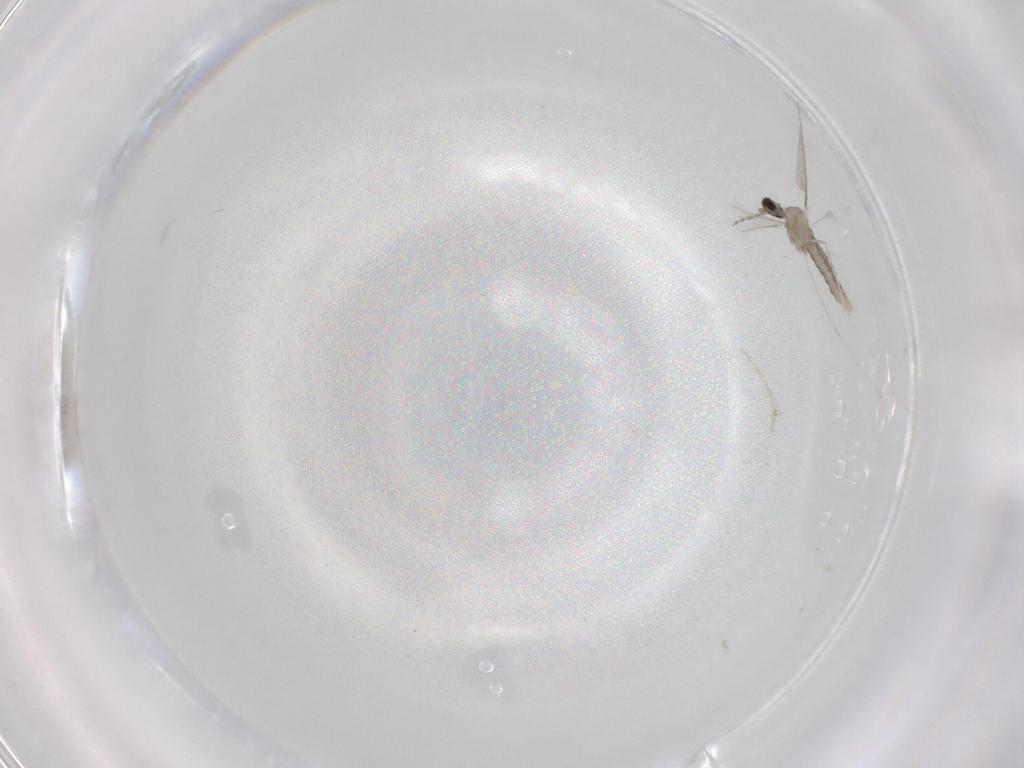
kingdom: Animalia
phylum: Arthropoda
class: Insecta
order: Diptera
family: Cecidomyiidae
